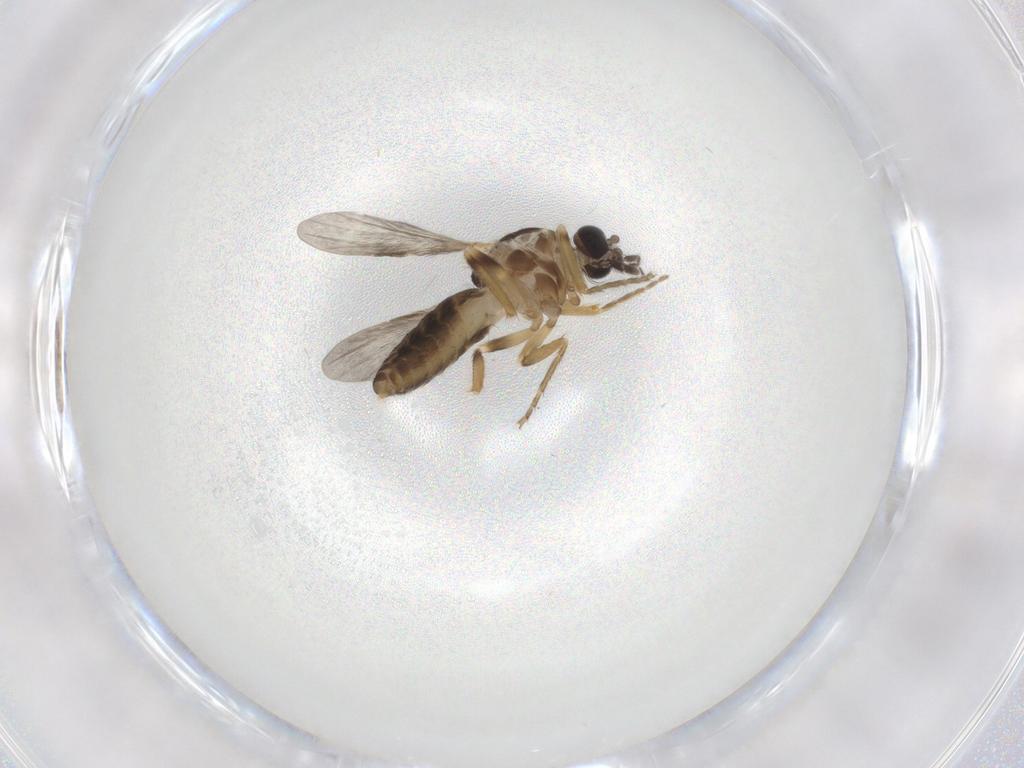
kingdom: Animalia
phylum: Arthropoda
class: Insecta
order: Diptera
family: Ceratopogonidae
